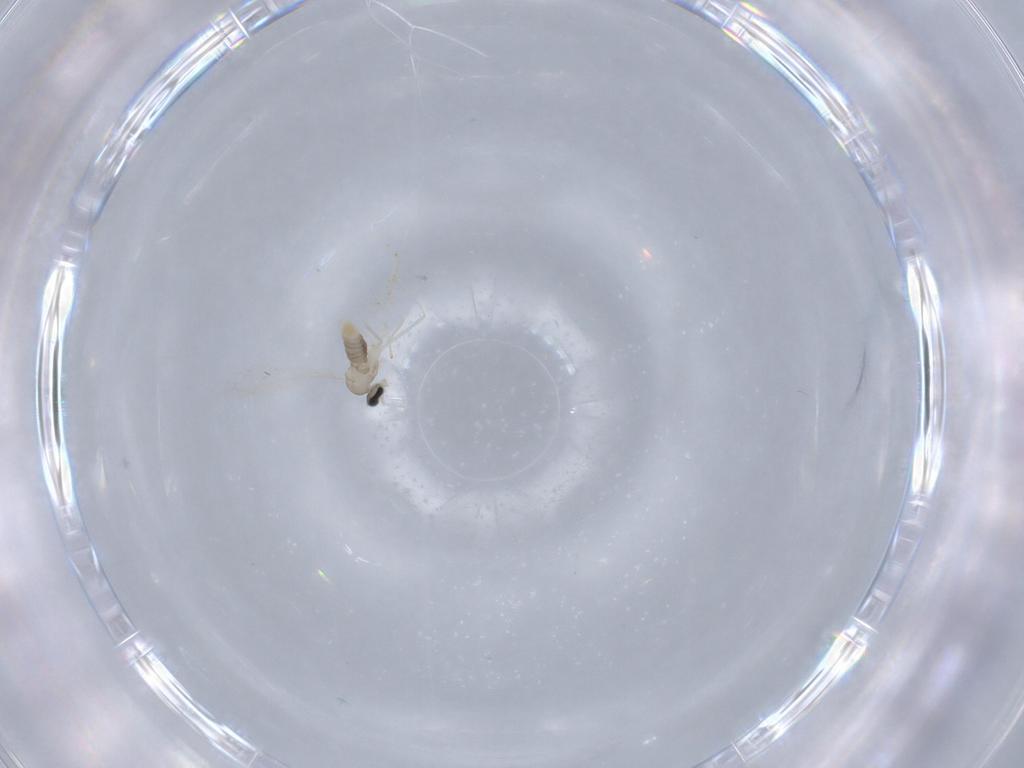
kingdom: Animalia
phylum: Arthropoda
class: Insecta
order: Diptera
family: Cecidomyiidae
